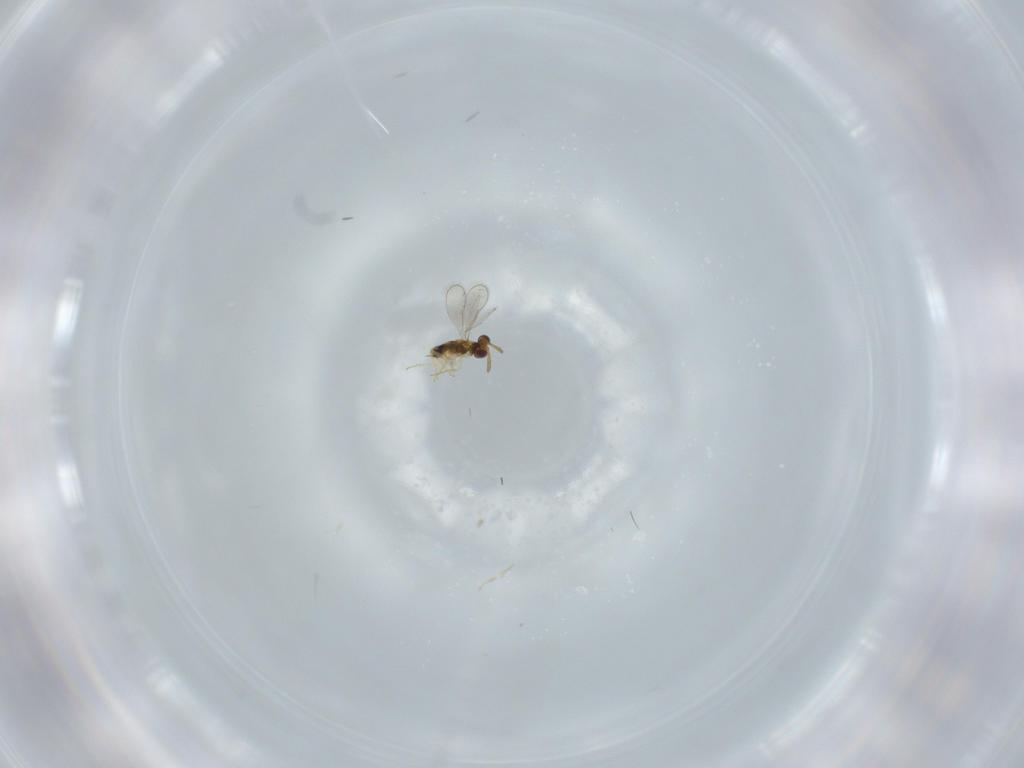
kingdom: Animalia
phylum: Arthropoda
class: Insecta
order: Hymenoptera
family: Aphelinidae
